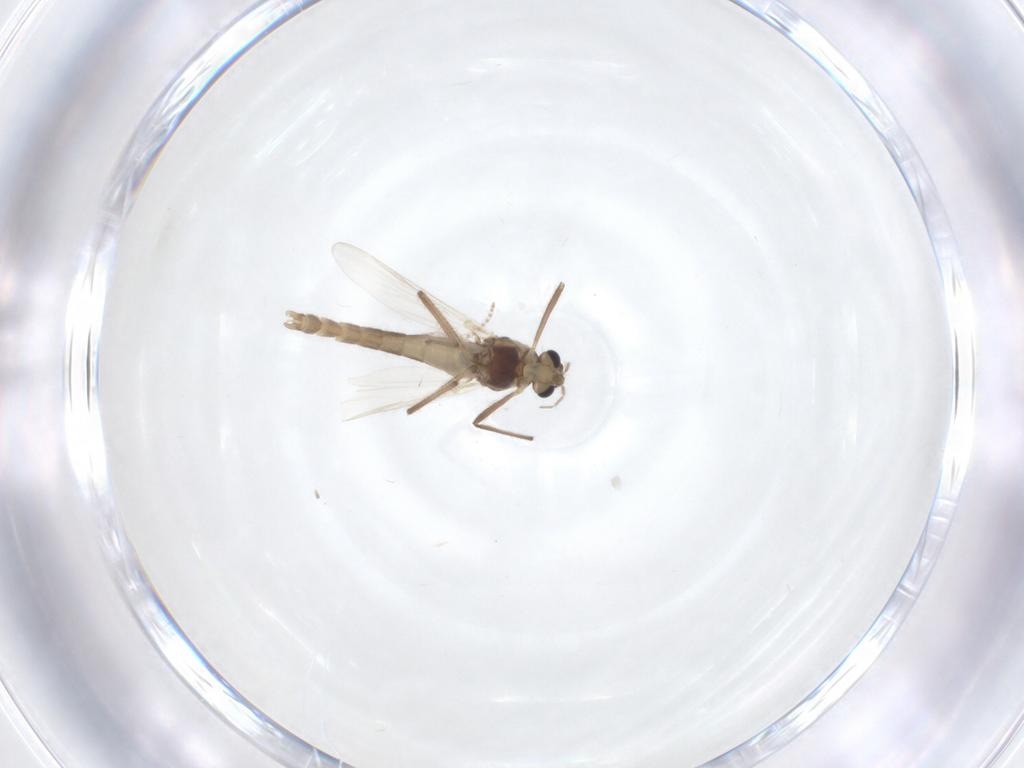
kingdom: Animalia
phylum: Arthropoda
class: Insecta
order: Diptera
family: Chironomidae
